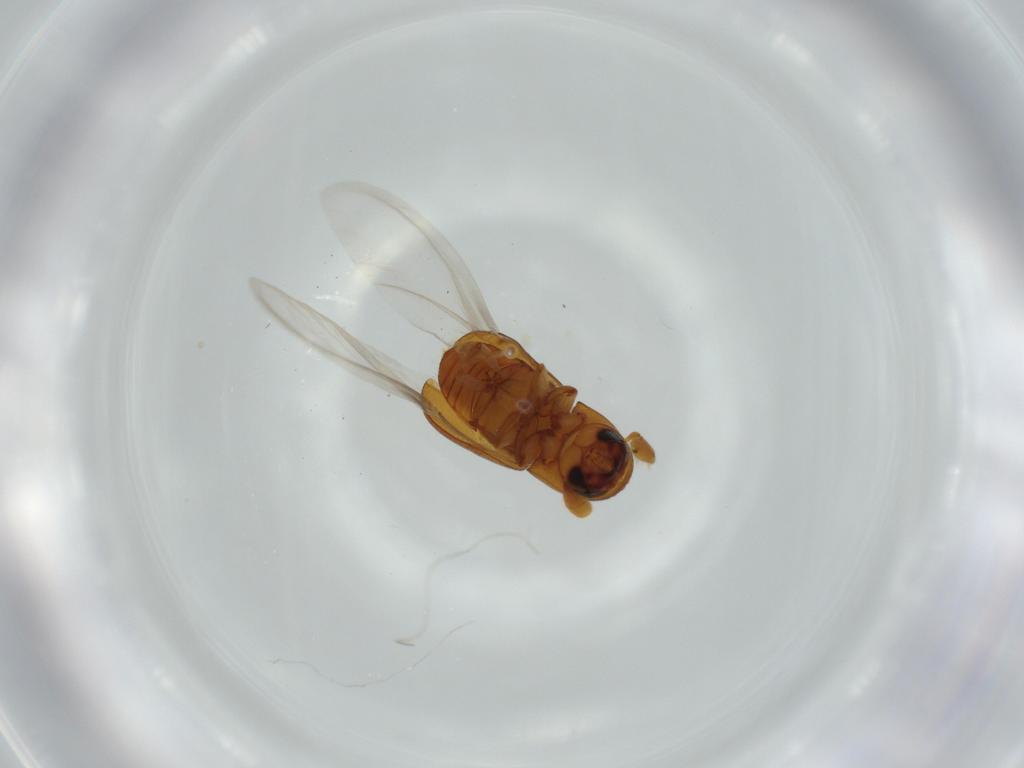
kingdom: Animalia
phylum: Arthropoda
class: Insecta
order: Coleoptera
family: Curculionidae
